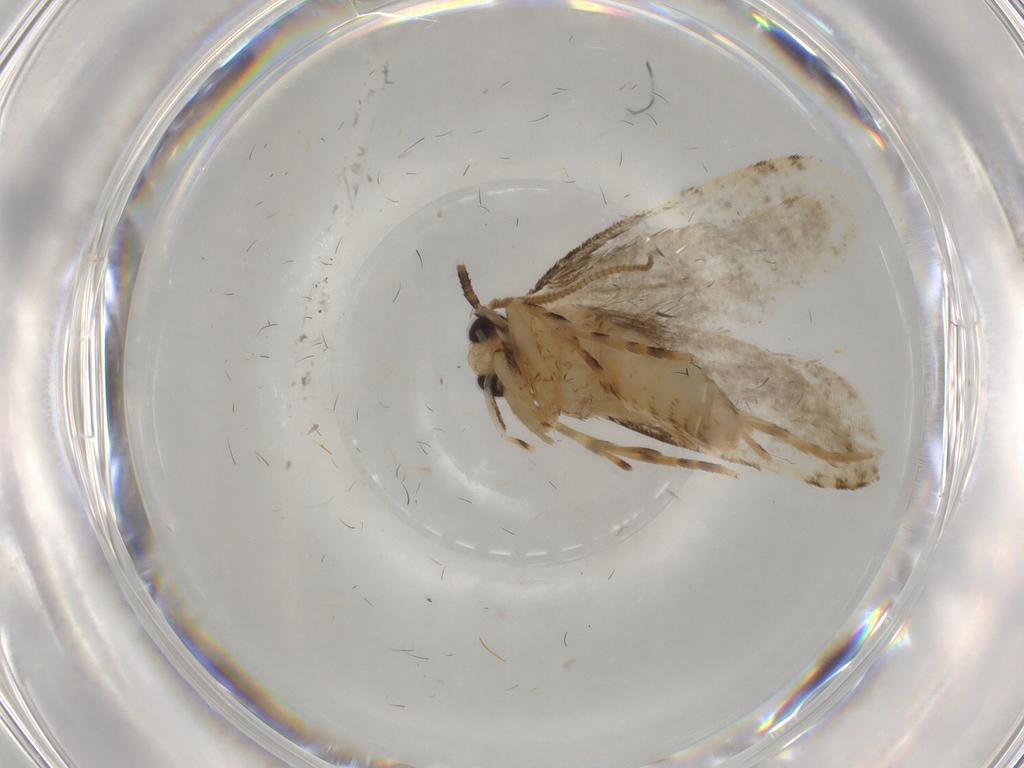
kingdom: Animalia
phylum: Arthropoda
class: Insecta
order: Lepidoptera
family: Tineidae
